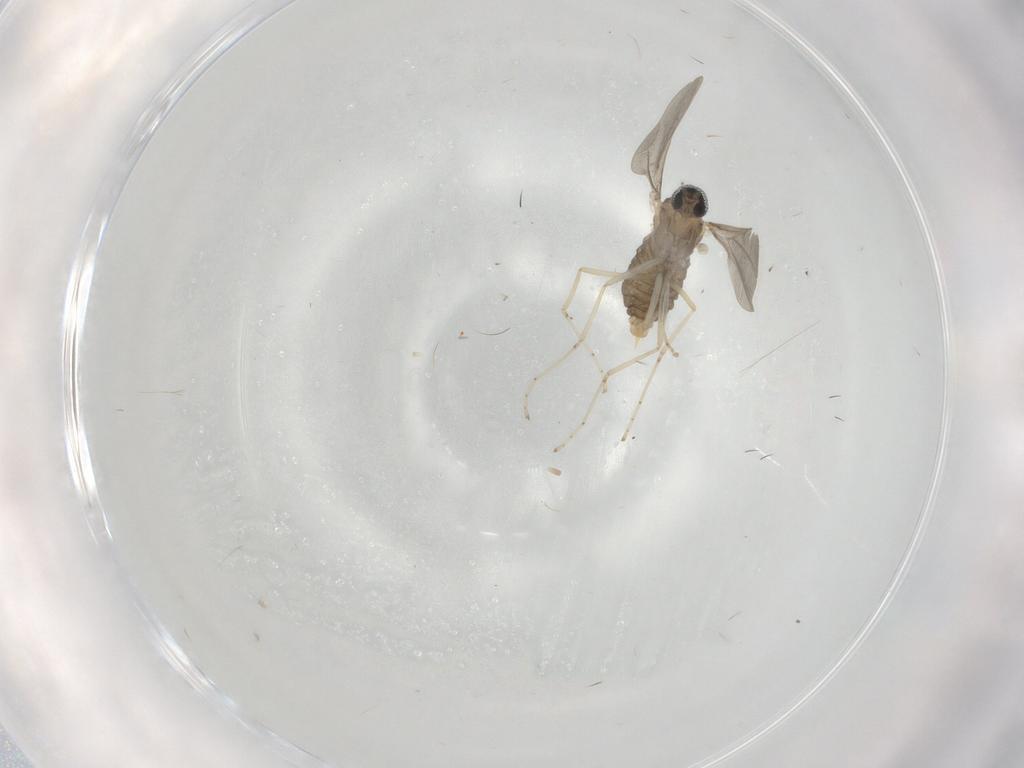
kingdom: Animalia
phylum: Arthropoda
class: Insecta
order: Diptera
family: Cecidomyiidae
